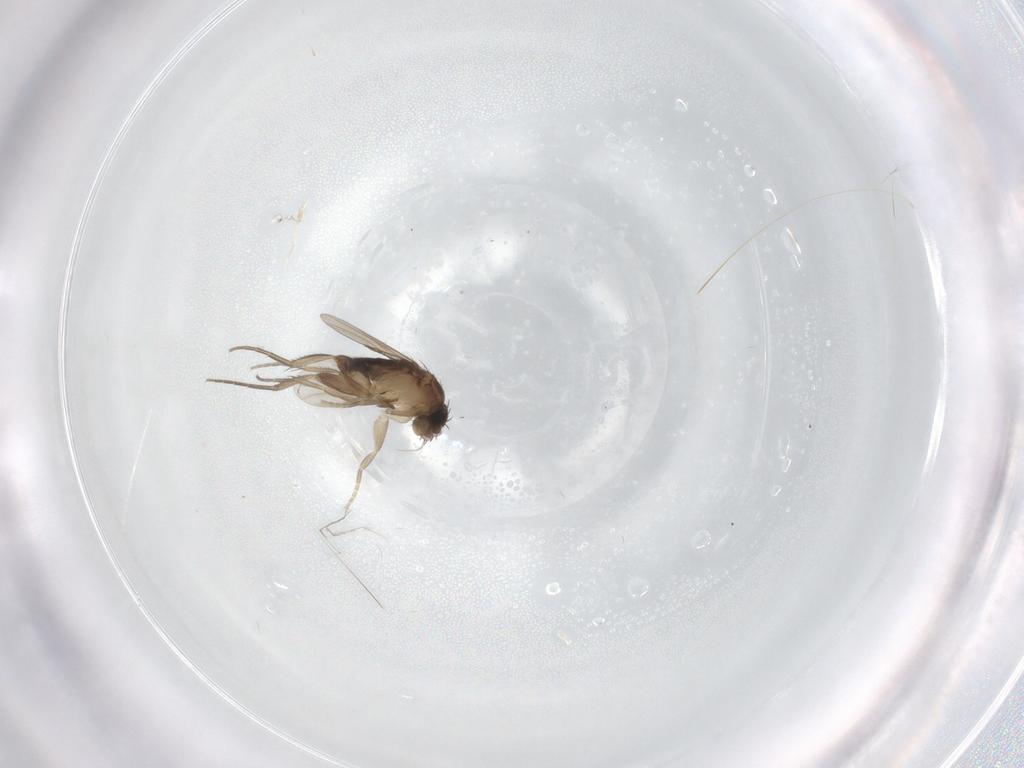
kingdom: Animalia
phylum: Arthropoda
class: Insecta
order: Diptera
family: Phoridae
